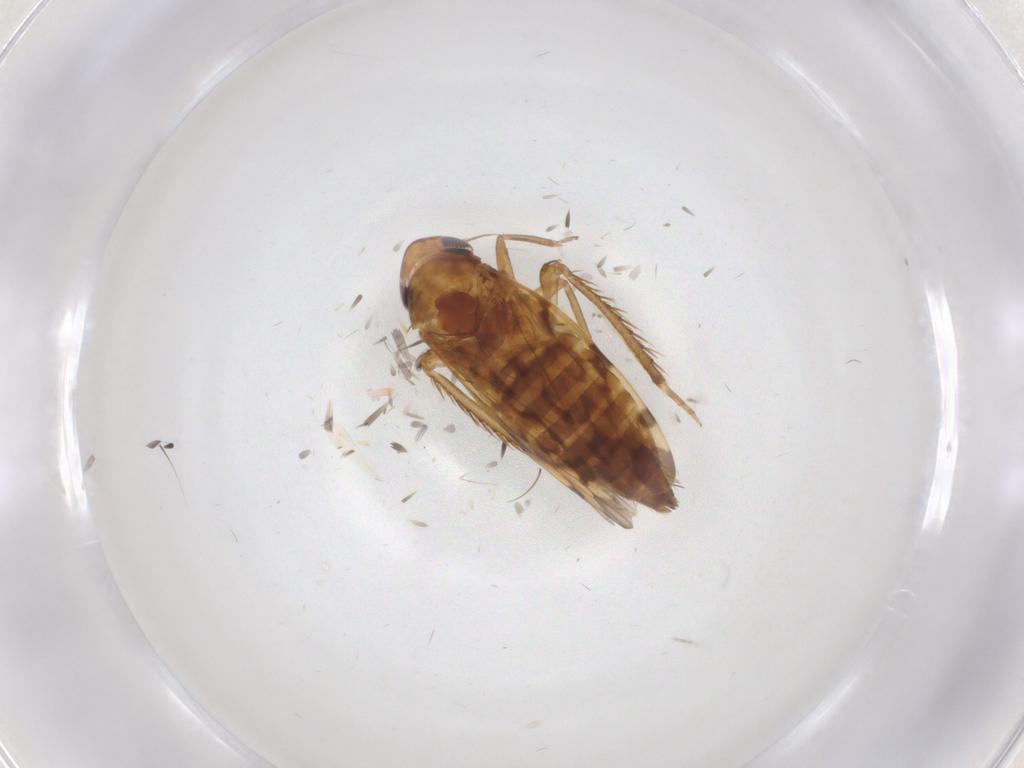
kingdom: Animalia
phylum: Arthropoda
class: Insecta
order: Hemiptera
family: Cicadellidae
